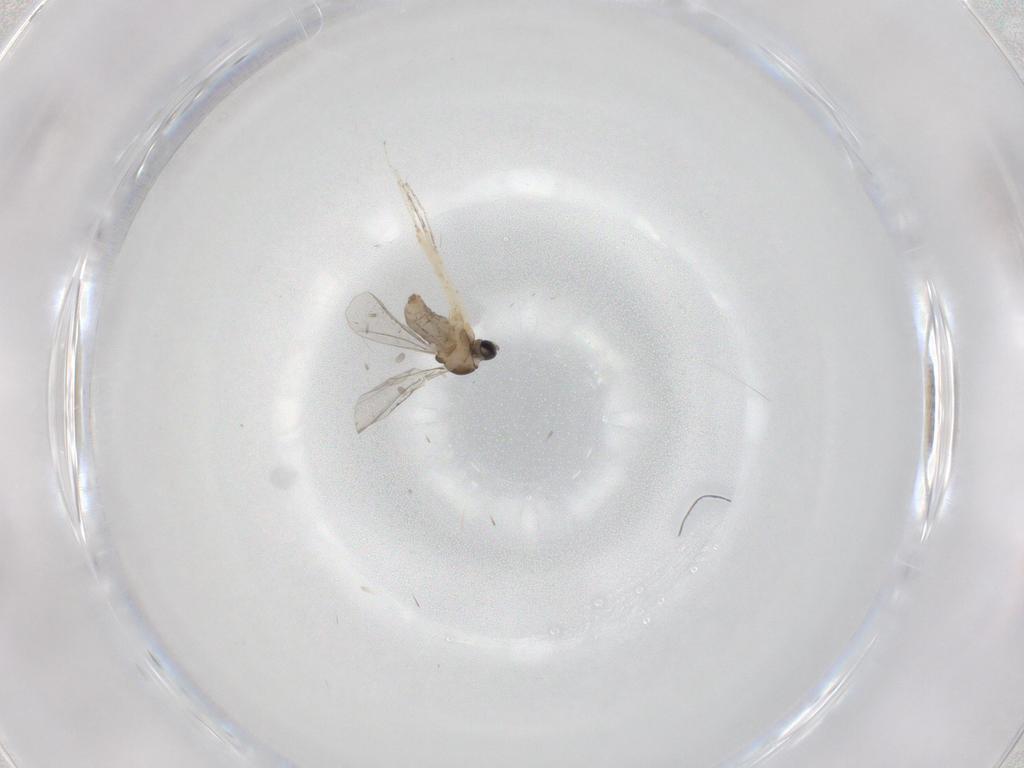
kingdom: Animalia
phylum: Arthropoda
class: Insecta
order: Diptera
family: Cecidomyiidae
